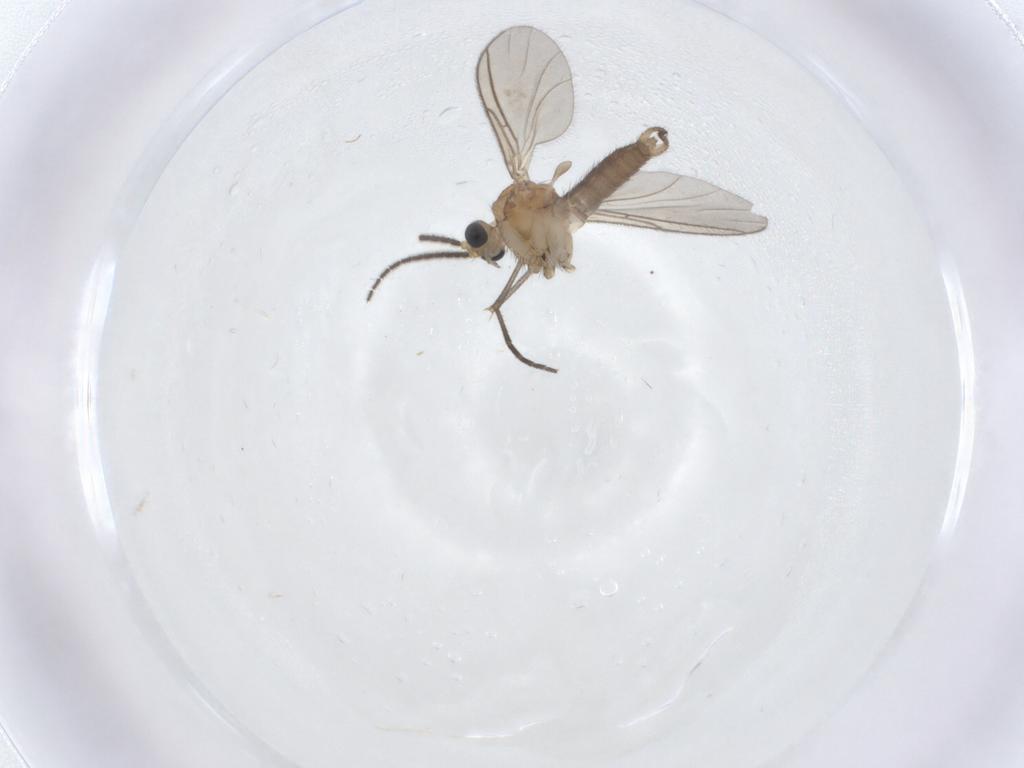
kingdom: Animalia
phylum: Arthropoda
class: Insecta
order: Diptera
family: Sciaridae
